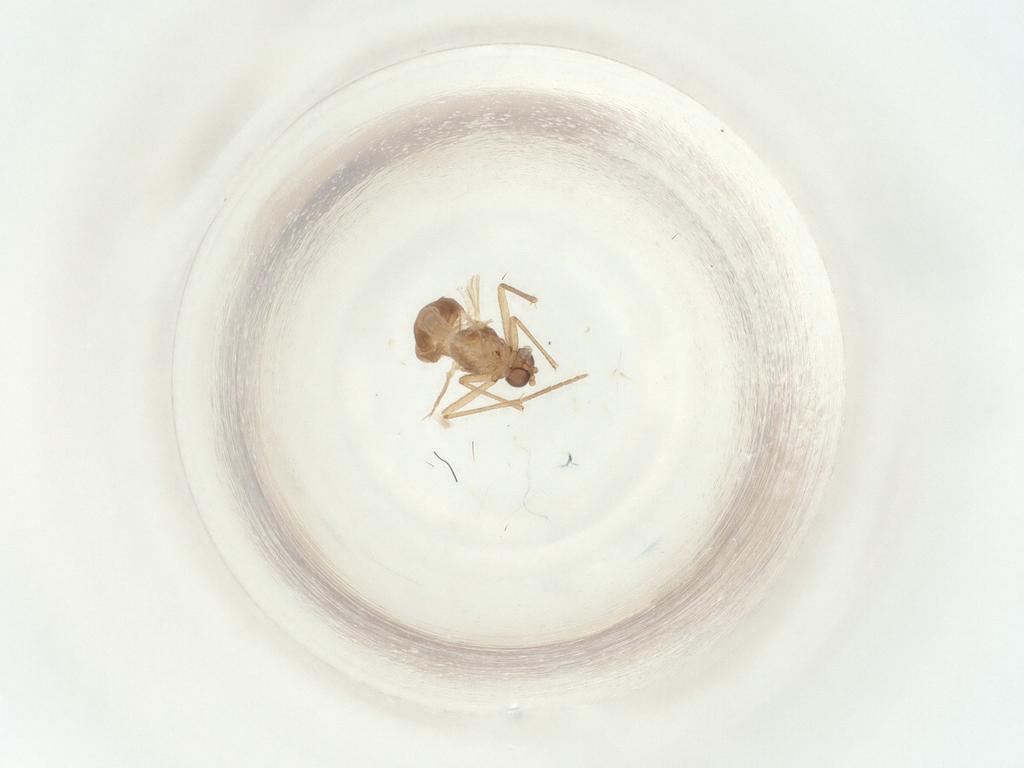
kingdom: Animalia
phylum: Arthropoda
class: Insecta
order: Diptera
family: Sciaridae
